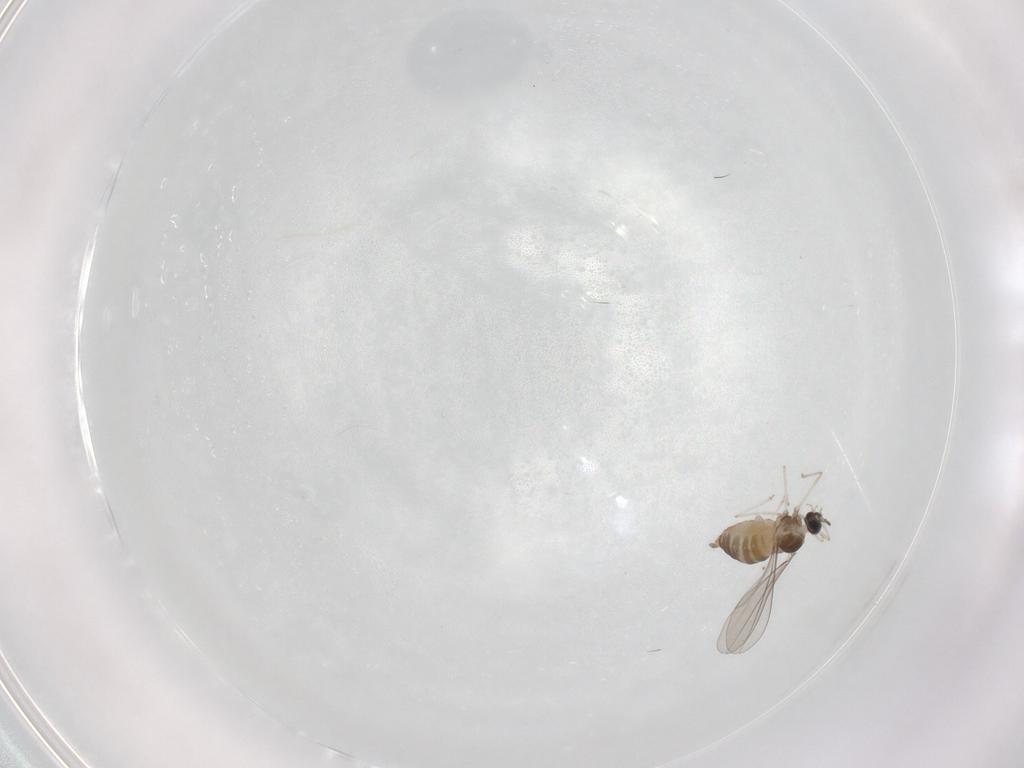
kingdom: Animalia
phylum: Arthropoda
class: Insecta
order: Diptera
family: Cecidomyiidae
